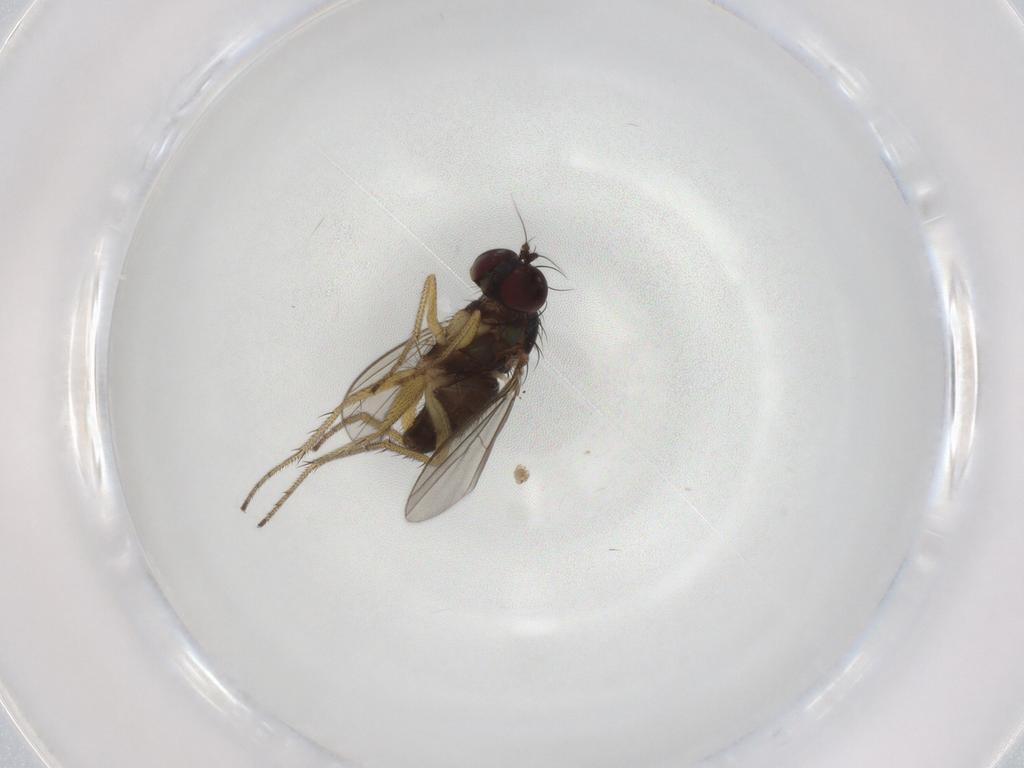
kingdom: Animalia
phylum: Arthropoda
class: Insecta
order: Diptera
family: Dolichopodidae
